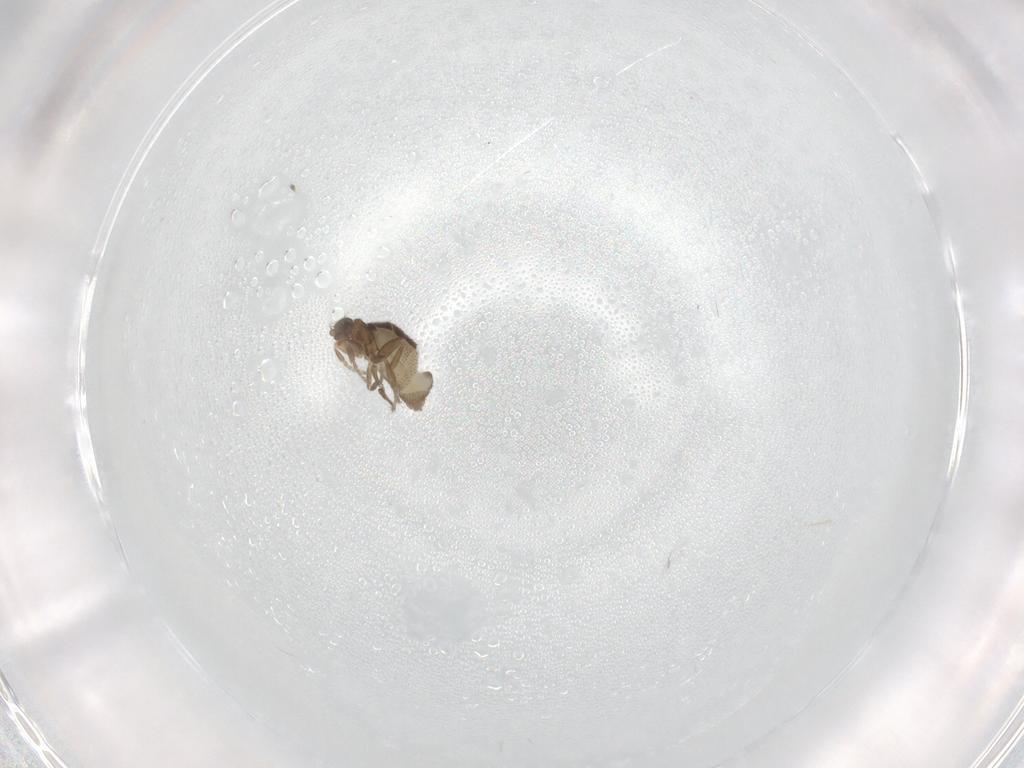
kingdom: Animalia
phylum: Arthropoda
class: Insecta
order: Diptera
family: Phoridae
